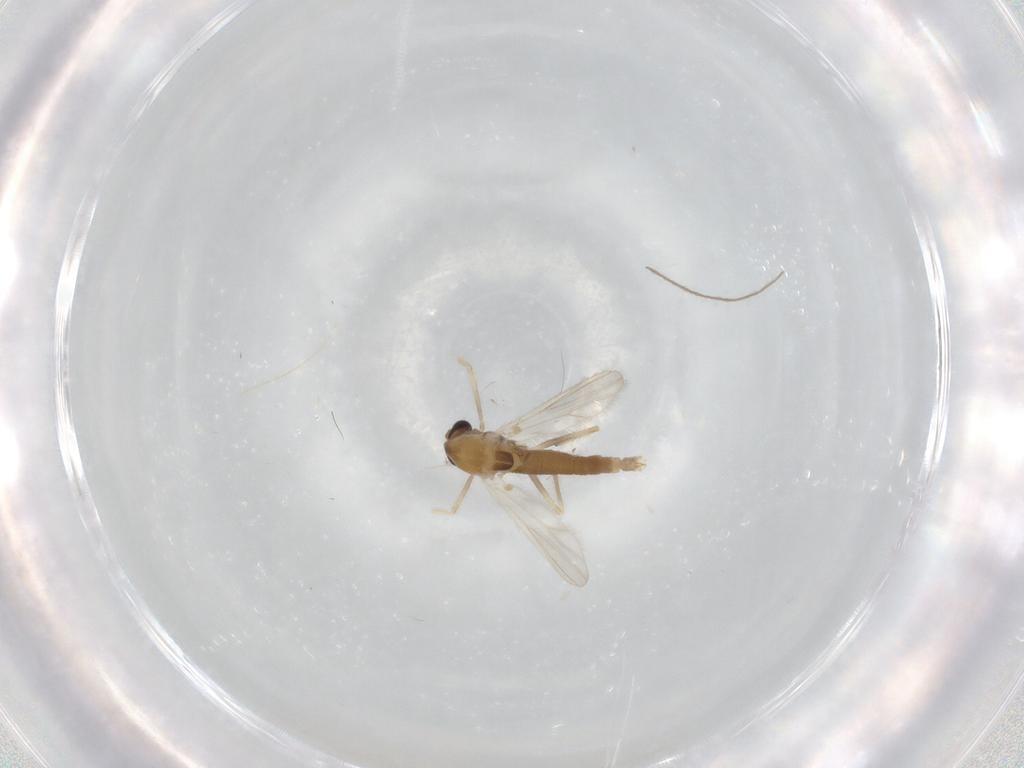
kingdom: Animalia
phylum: Arthropoda
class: Insecta
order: Diptera
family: Chironomidae
